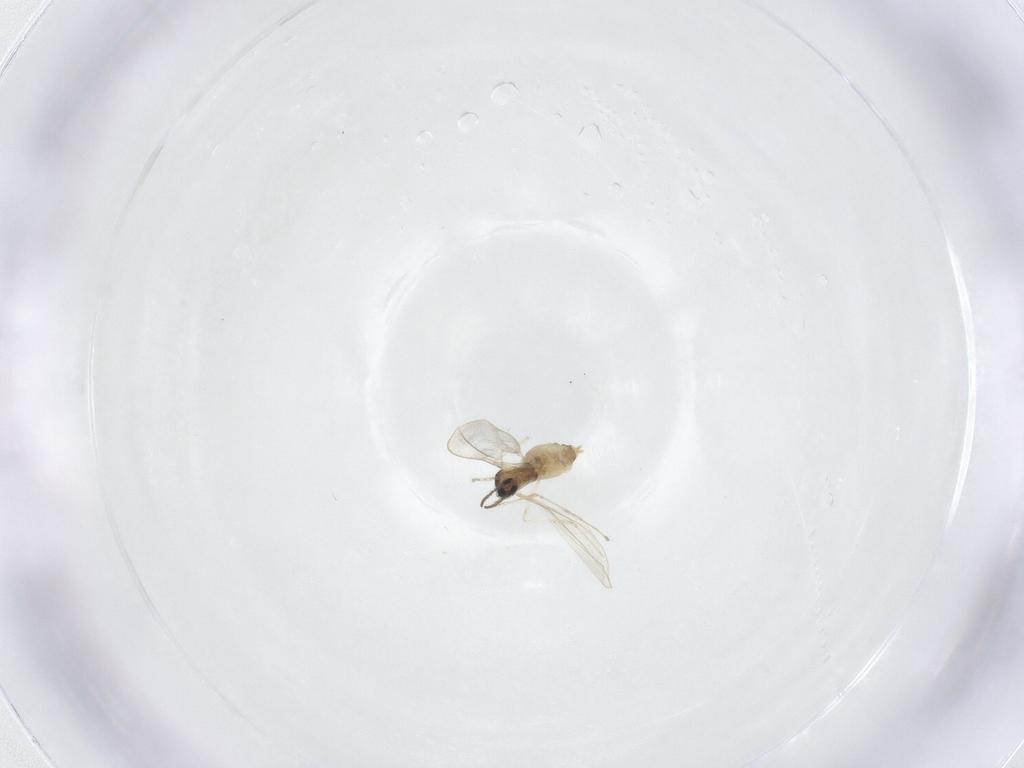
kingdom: Animalia
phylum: Arthropoda
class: Insecta
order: Diptera
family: Cecidomyiidae
